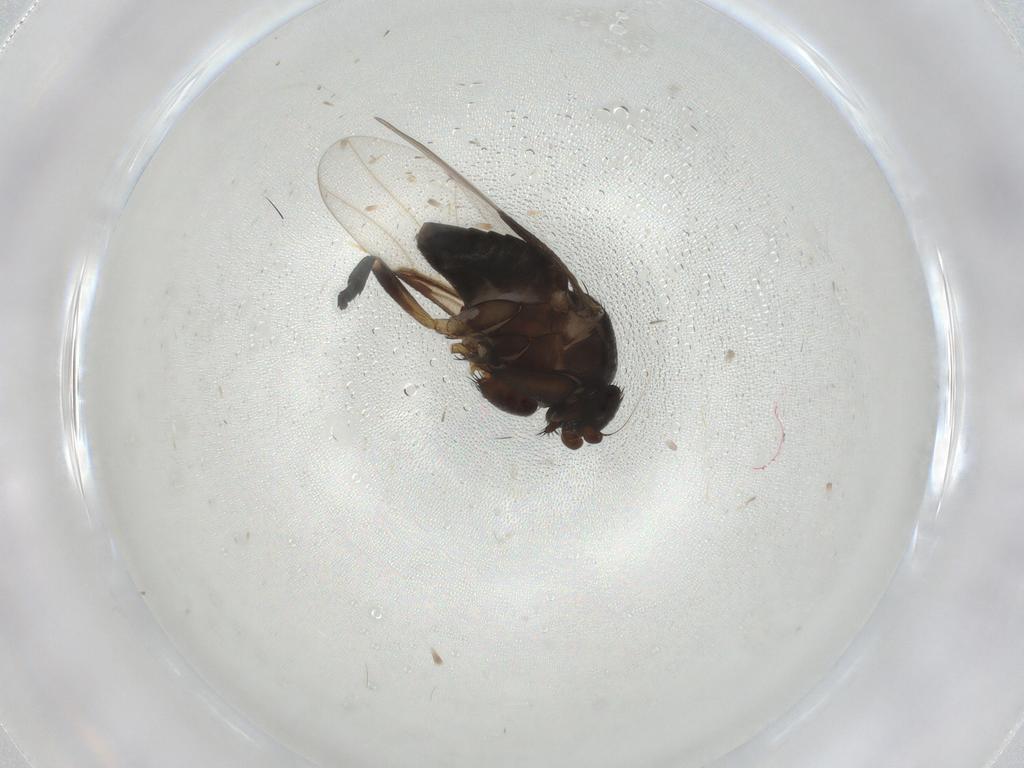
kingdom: Animalia
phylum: Arthropoda
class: Insecta
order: Diptera
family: Phoridae
